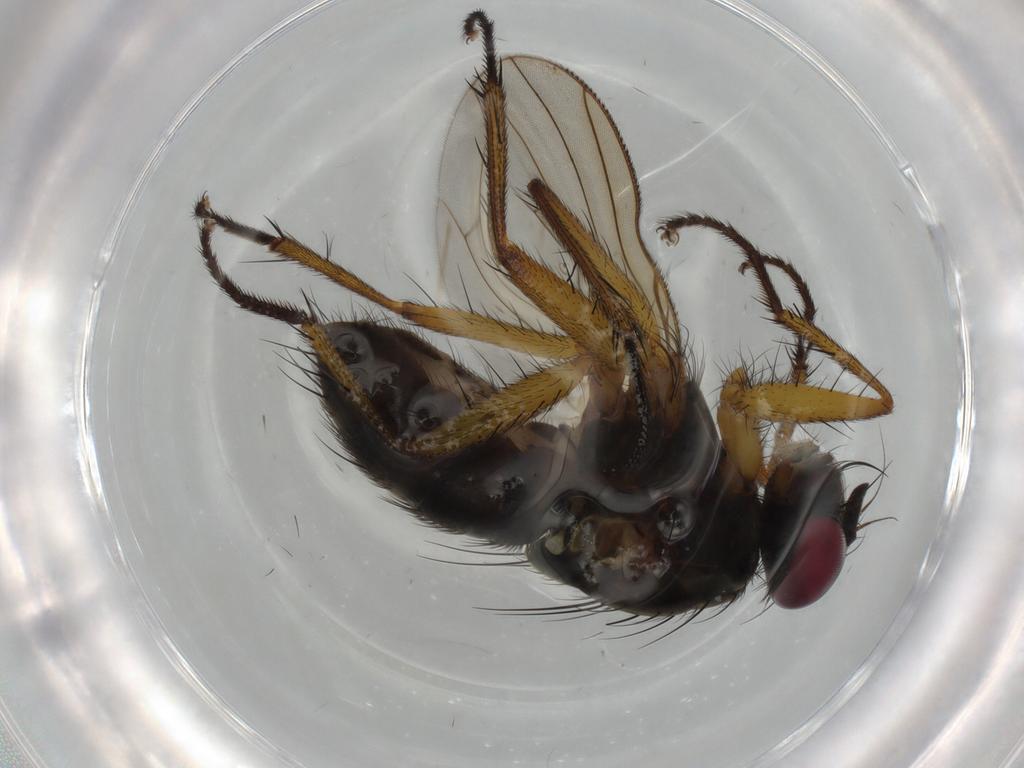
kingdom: Animalia
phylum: Arthropoda
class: Insecta
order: Diptera
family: Muscidae
